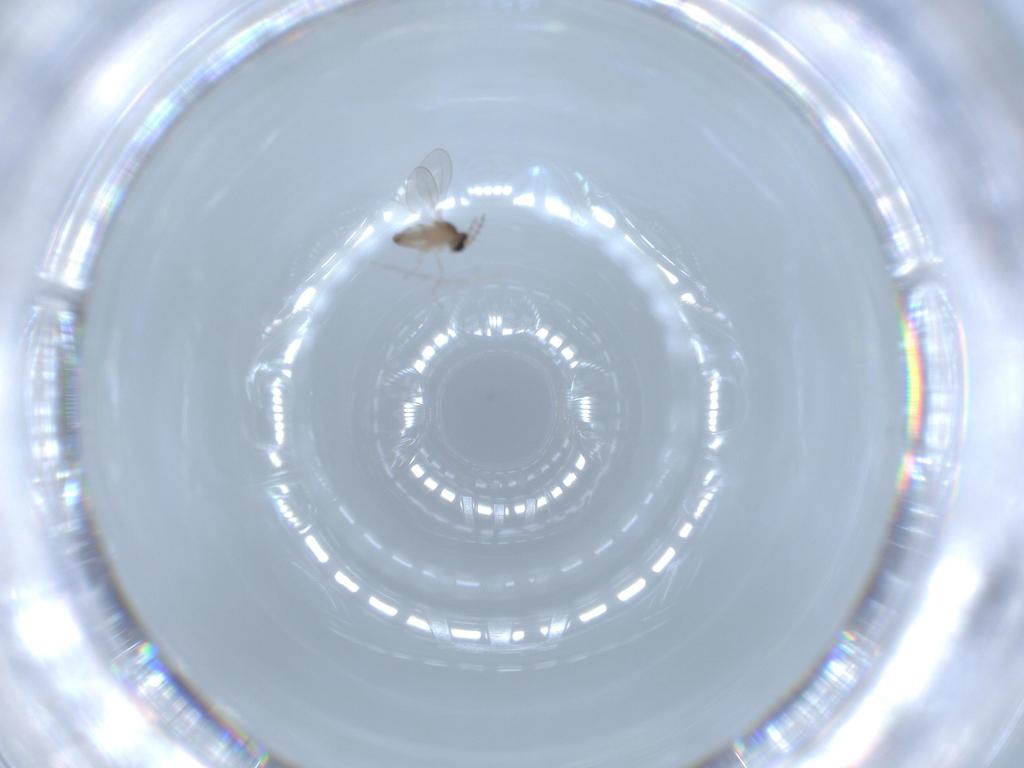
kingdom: Animalia
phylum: Arthropoda
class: Insecta
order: Diptera
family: Cecidomyiidae
